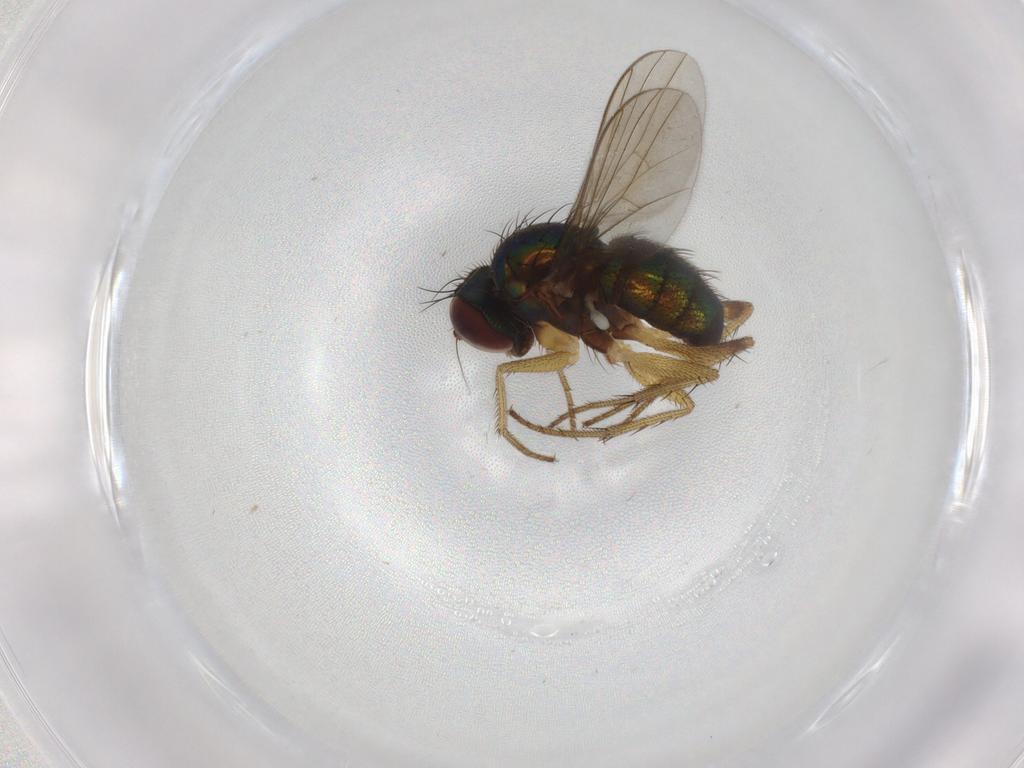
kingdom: Animalia
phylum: Arthropoda
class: Insecta
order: Diptera
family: Dolichopodidae
